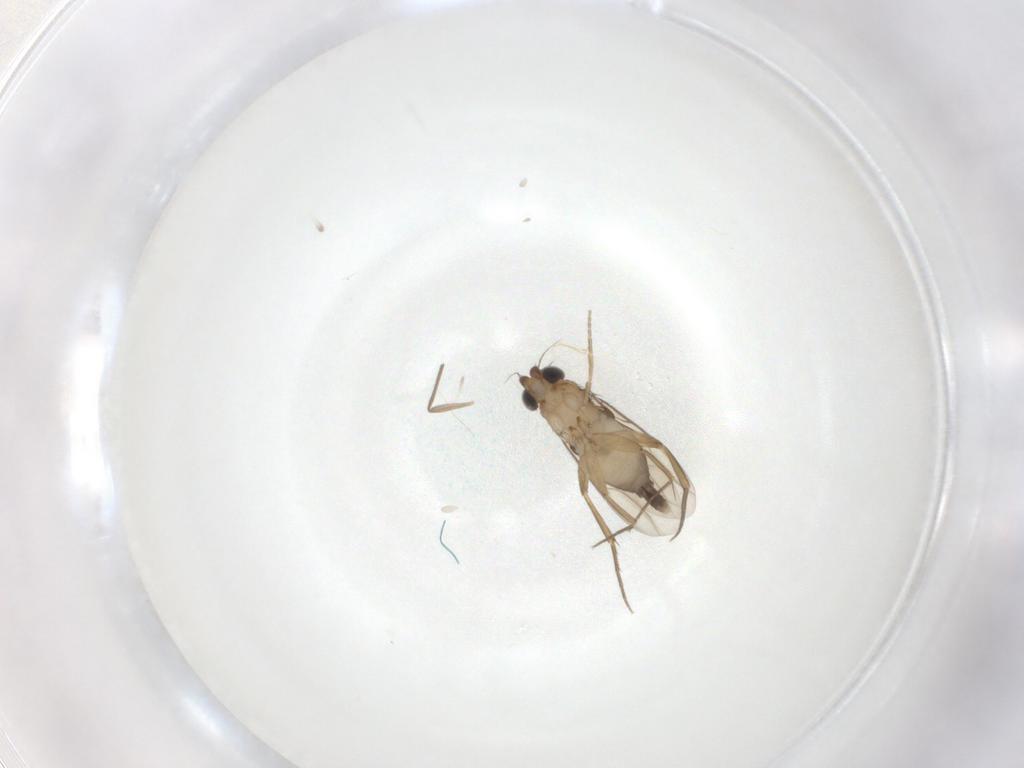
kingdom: Animalia
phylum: Arthropoda
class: Insecta
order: Diptera
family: Phoridae
